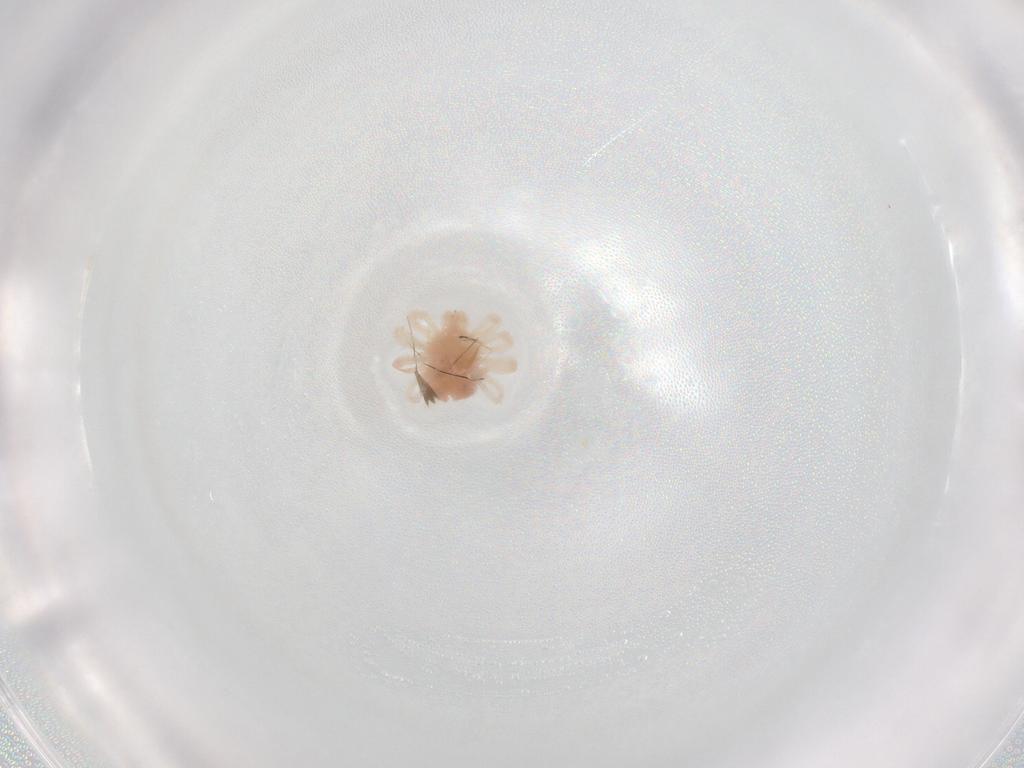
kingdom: Animalia
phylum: Arthropoda
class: Arachnida
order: Trombidiformes
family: Anystidae
